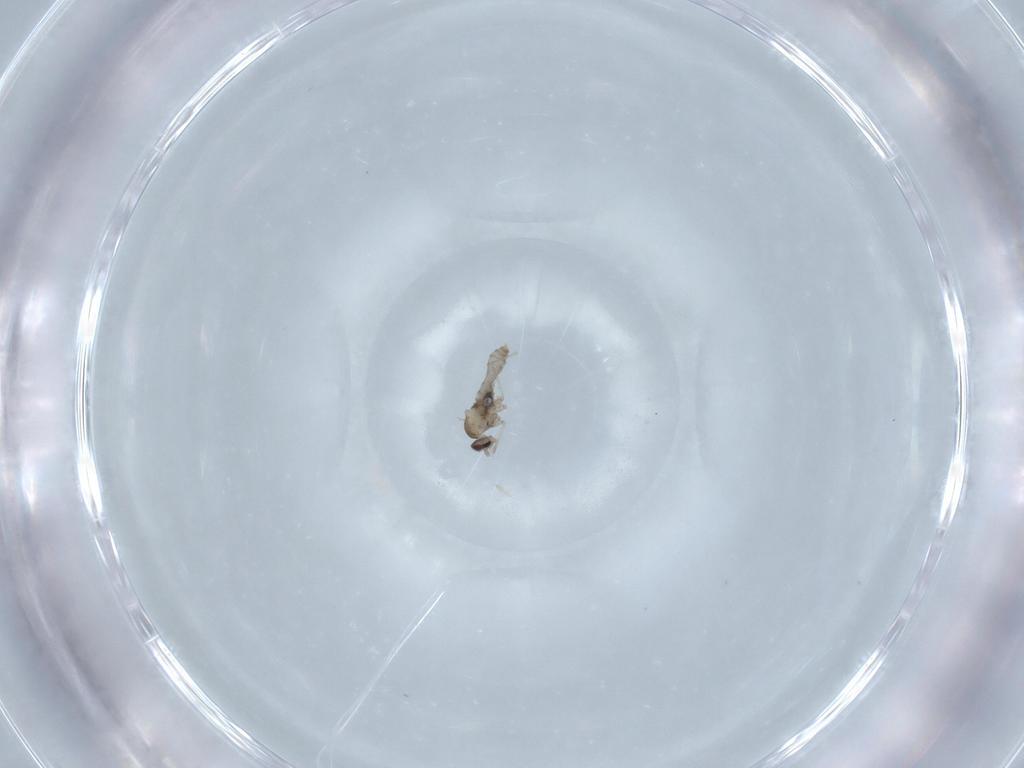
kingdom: Animalia
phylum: Arthropoda
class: Insecta
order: Diptera
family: Cecidomyiidae
